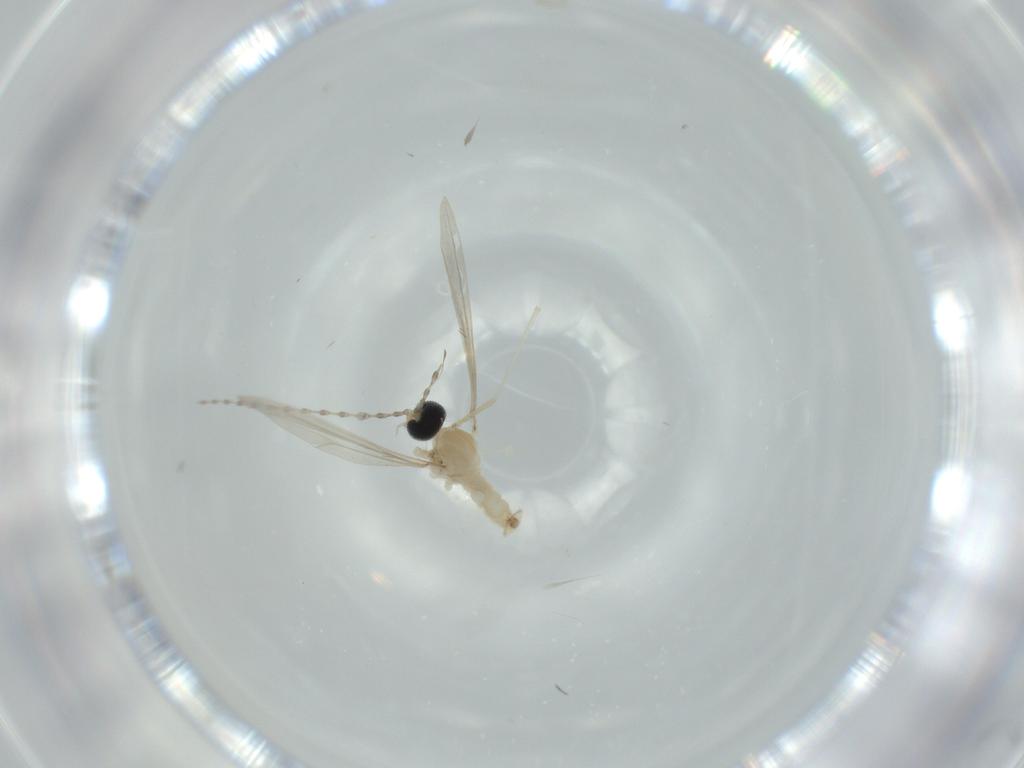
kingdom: Animalia
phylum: Arthropoda
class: Insecta
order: Diptera
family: Cecidomyiidae
